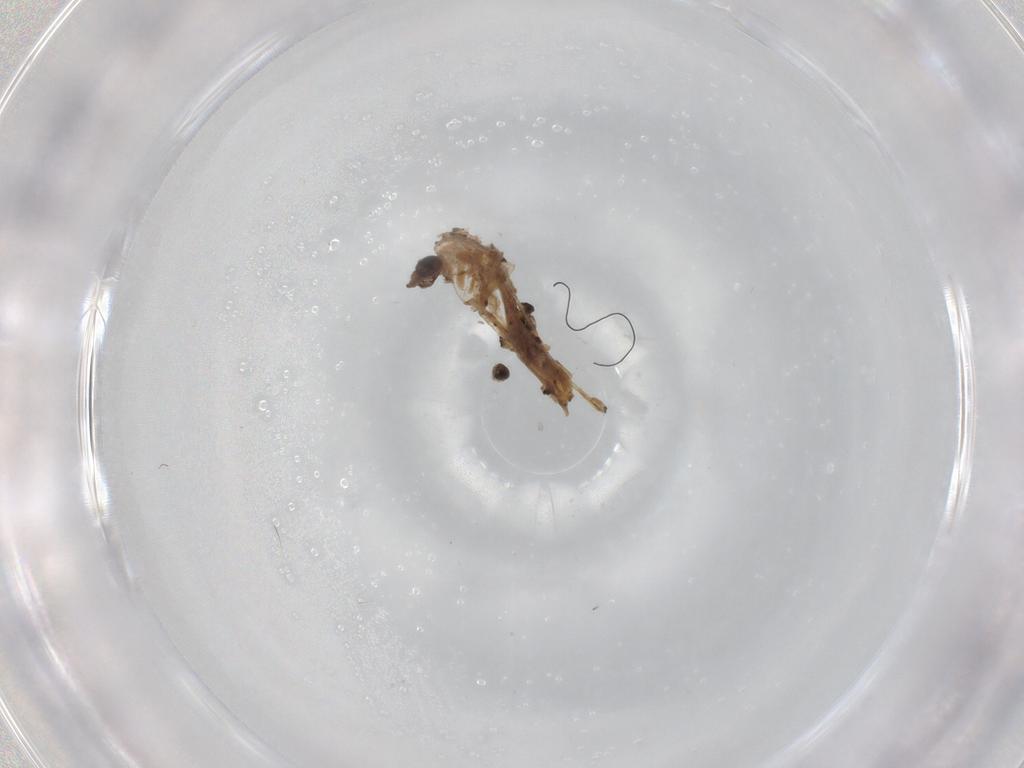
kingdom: Animalia
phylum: Arthropoda
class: Insecta
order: Diptera
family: Chironomidae
